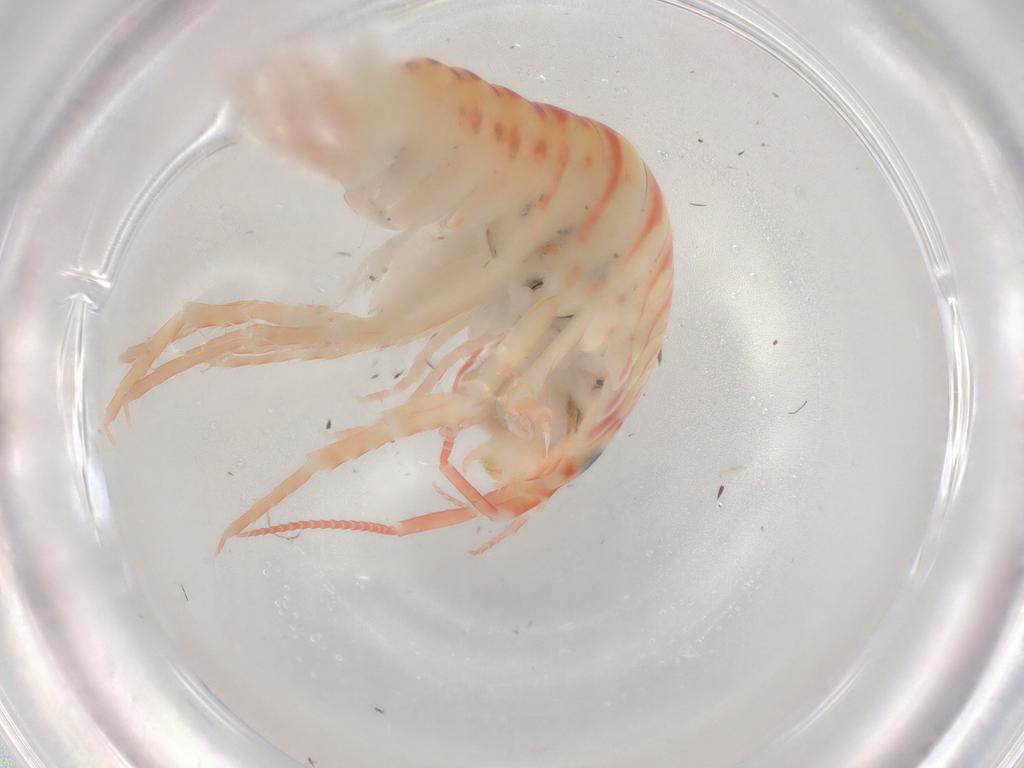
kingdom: Animalia
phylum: Arthropoda
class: Malacostraca
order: Amphipoda
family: Talitridae
